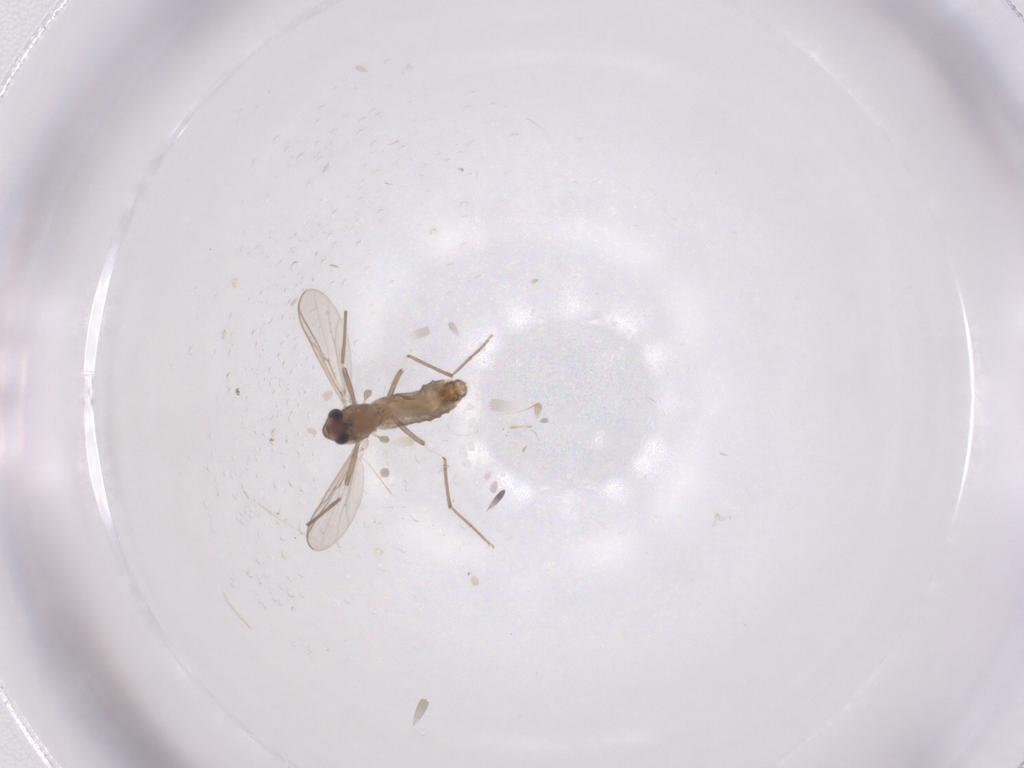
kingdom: Animalia
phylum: Arthropoda
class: Insecta
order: Diptera
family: Chironomidae
